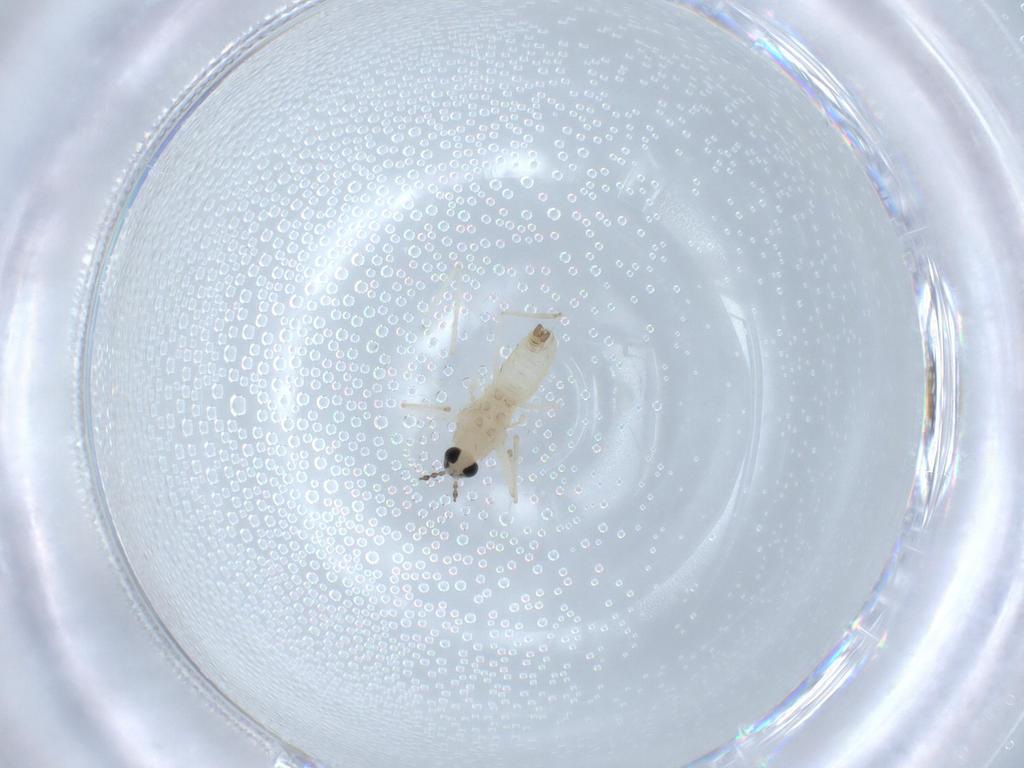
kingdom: Animalia
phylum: Arthropoda
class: Insecta
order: Diptera
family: Cecidomyiidae
